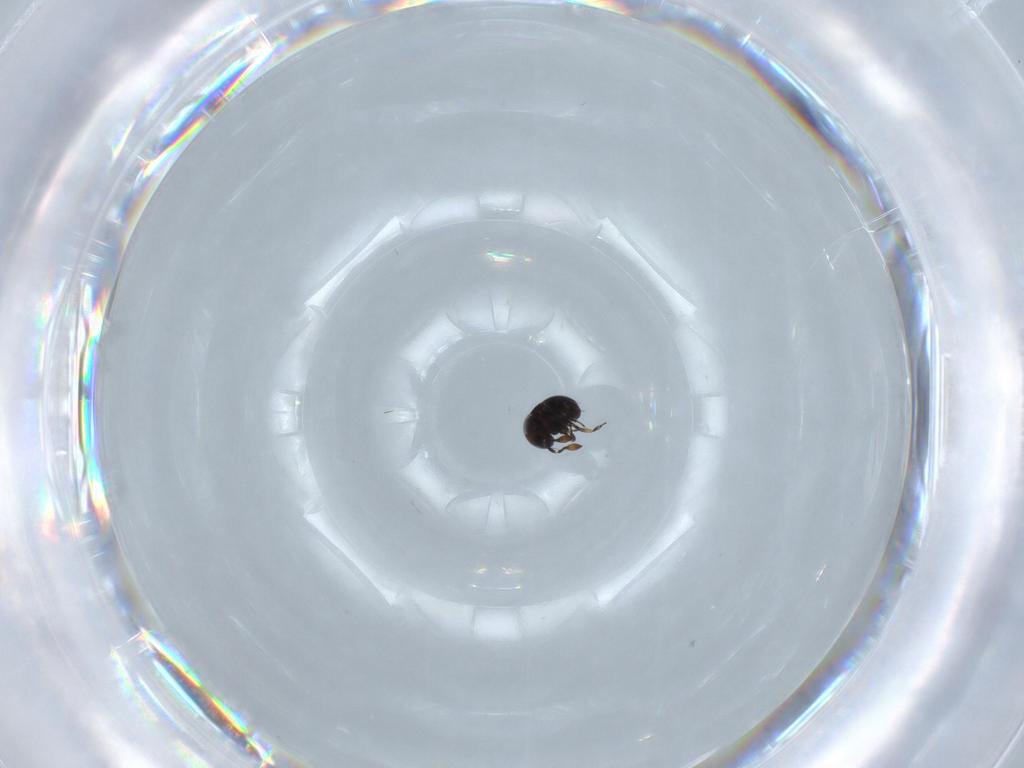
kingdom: Animalia
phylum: Arthropoda
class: Insecta
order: Hymenoptera
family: Scelionidae
